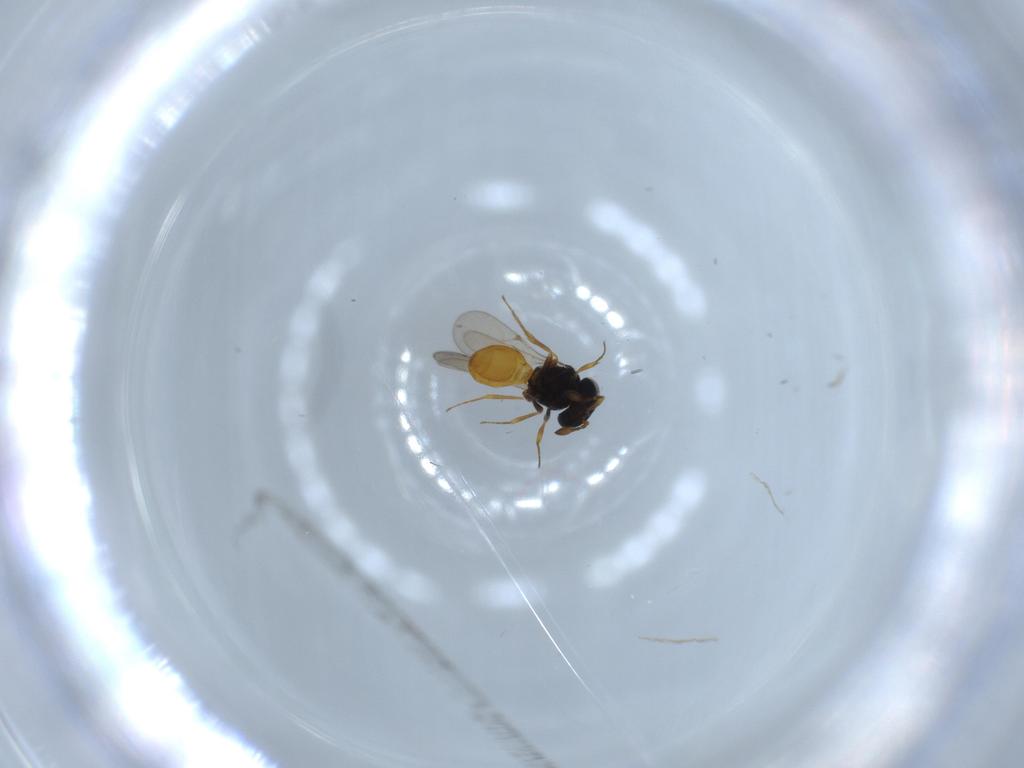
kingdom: Animalia
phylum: Arthropoda
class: Insecta
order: Hymenoptera
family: Scelionidae
